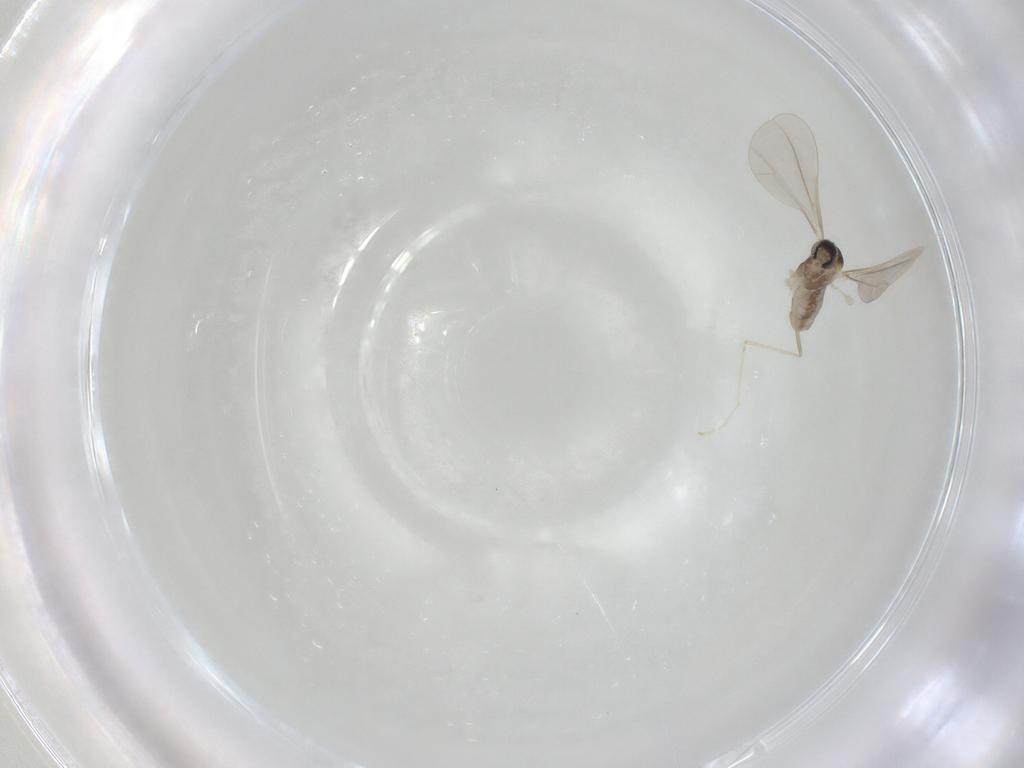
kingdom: Animalia
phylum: Arthropoda
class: Insecta
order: Diptera
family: Cecidomyiidae
